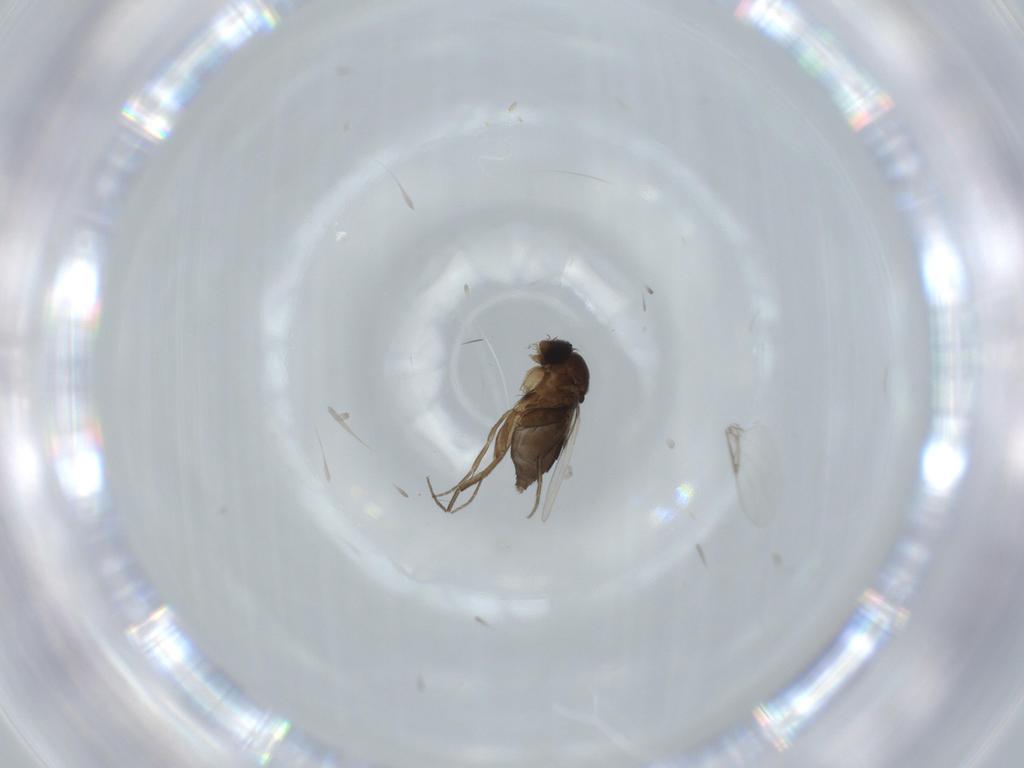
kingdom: Animalia
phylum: Arthropoda
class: Insecta
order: Diptera
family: Phoridae
